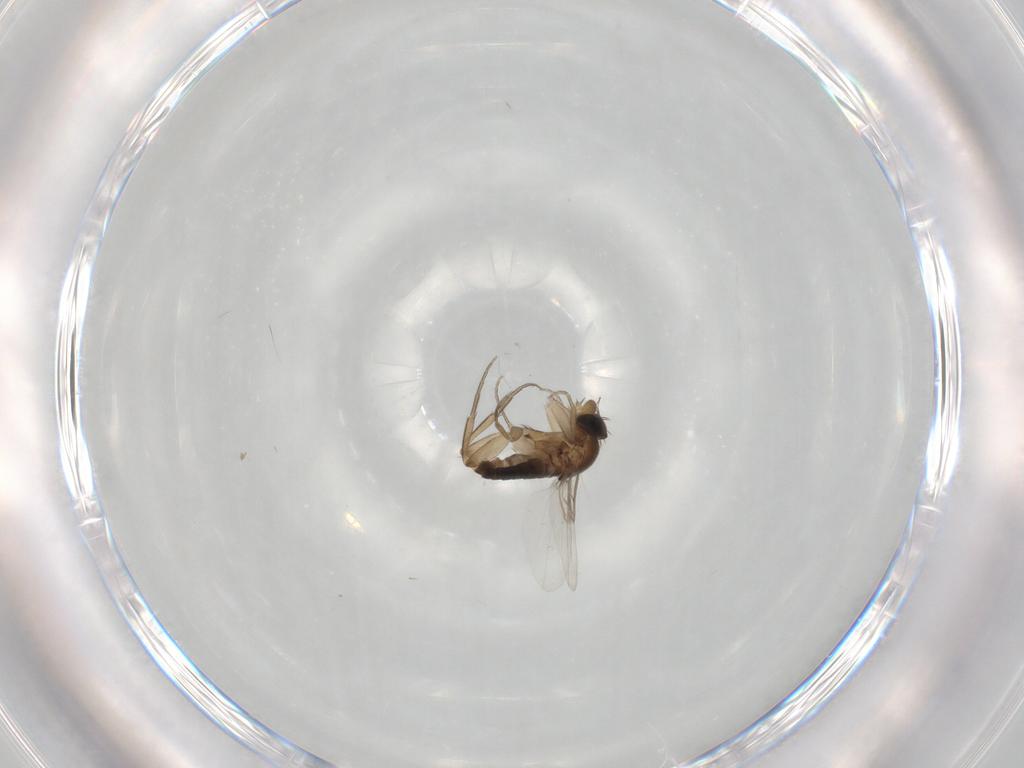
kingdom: Animalia
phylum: Arthropoda
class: Insecta
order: Diptera
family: Phoridae
